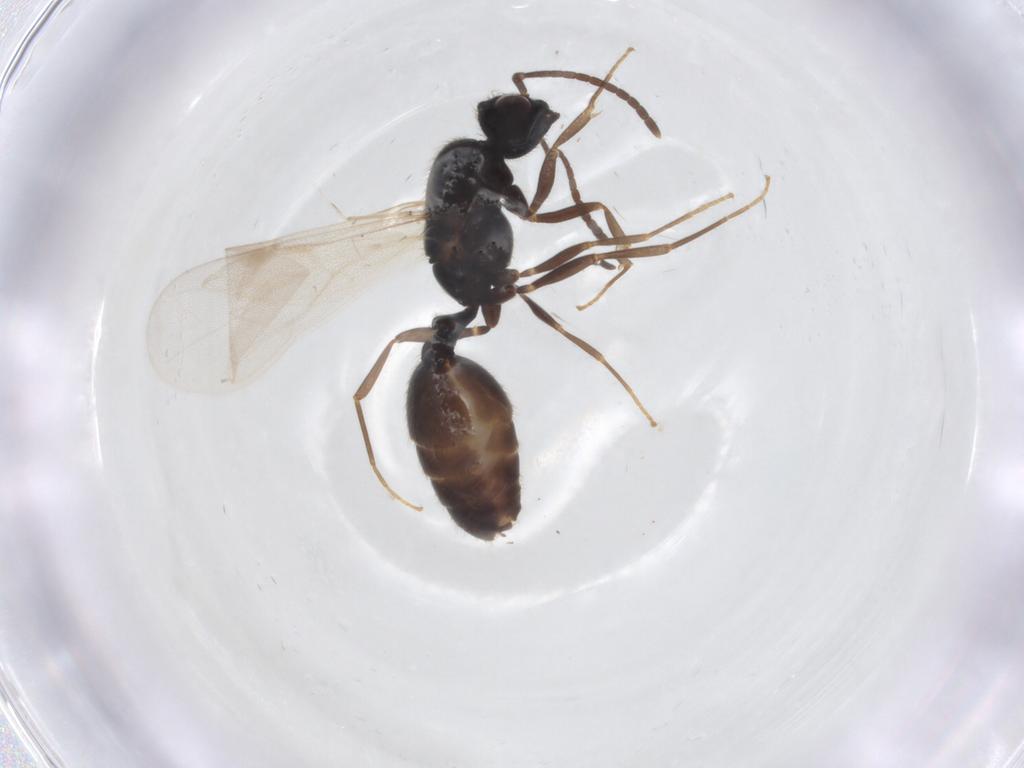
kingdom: Animalia
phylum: Arthropoda
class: Insecta
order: Hymenoptera
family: Formicidae
